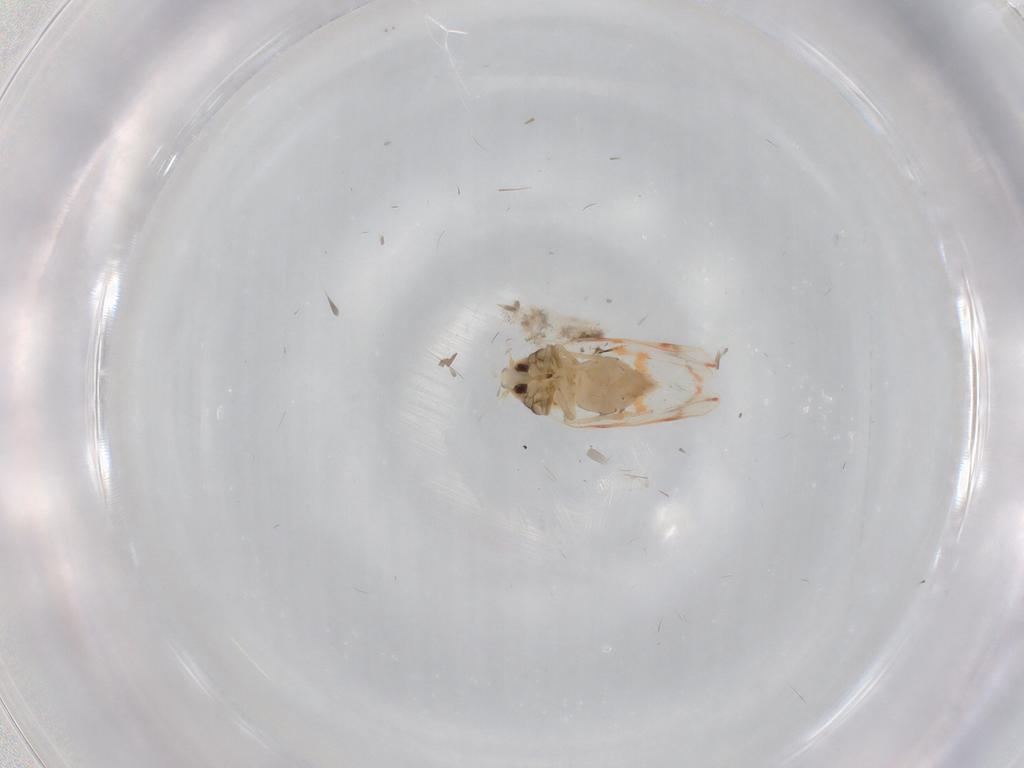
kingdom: Animalia
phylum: Arthropoda
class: Insecta
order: Hemiptera
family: Aleyrodidae
